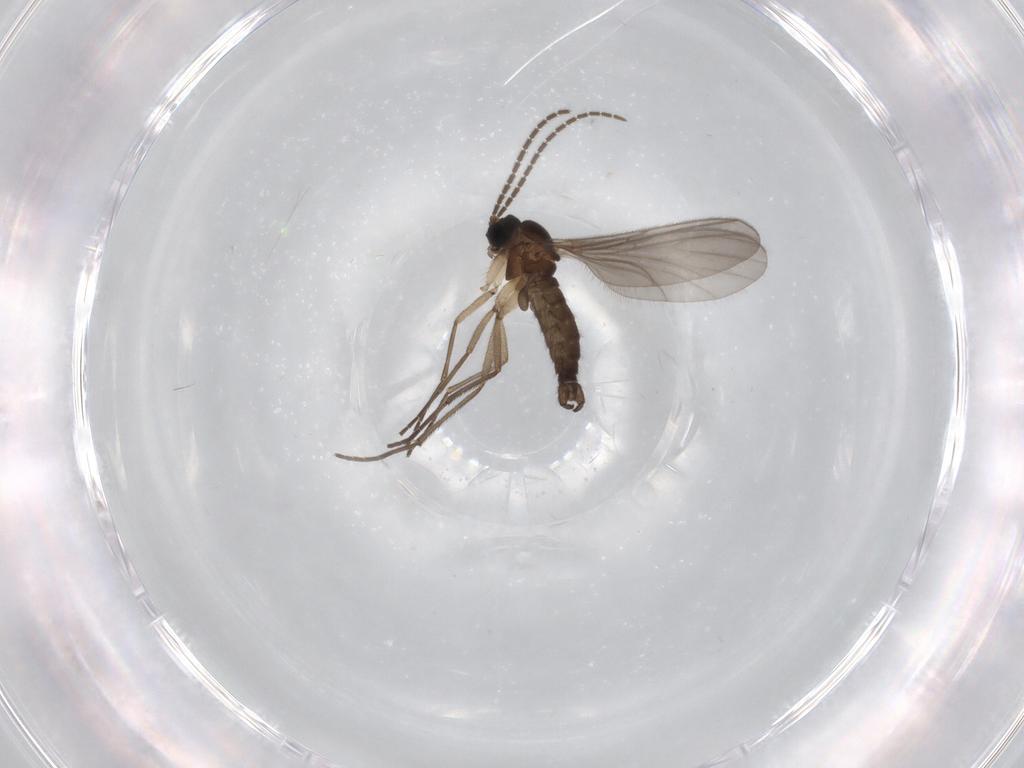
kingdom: Animalia
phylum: Arthropoda
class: Insecta
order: Diptera
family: Sciaridae
